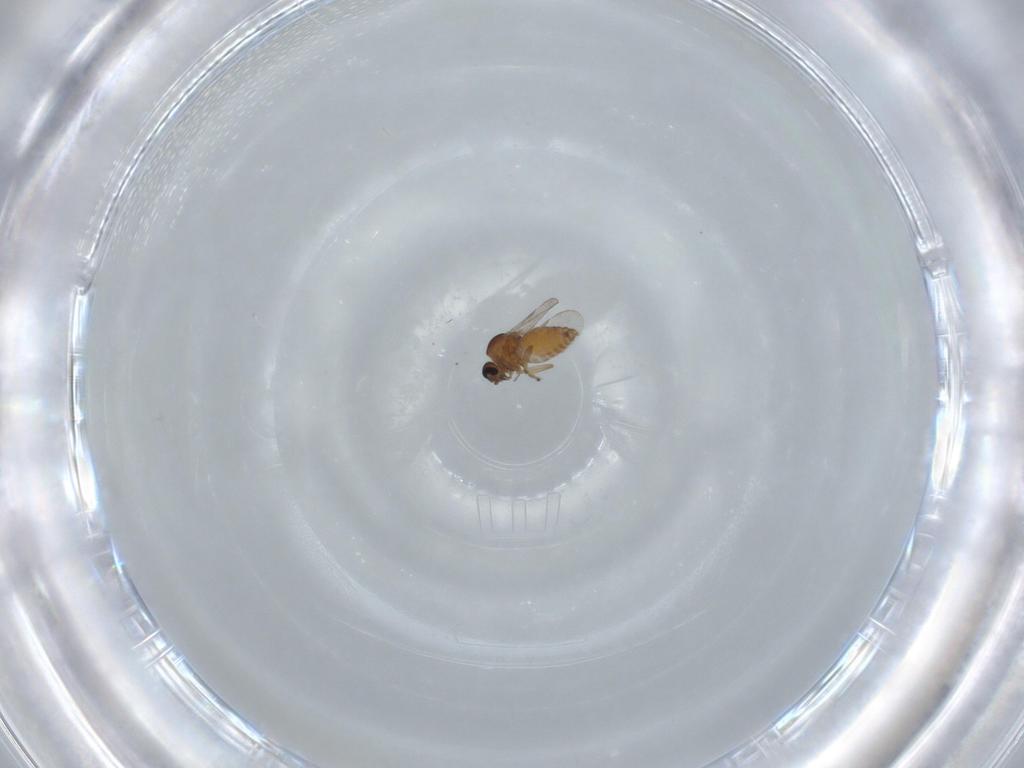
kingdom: Animalia
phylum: Arthropoda
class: Insecta
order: Diptera
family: Ceratopogonidae
